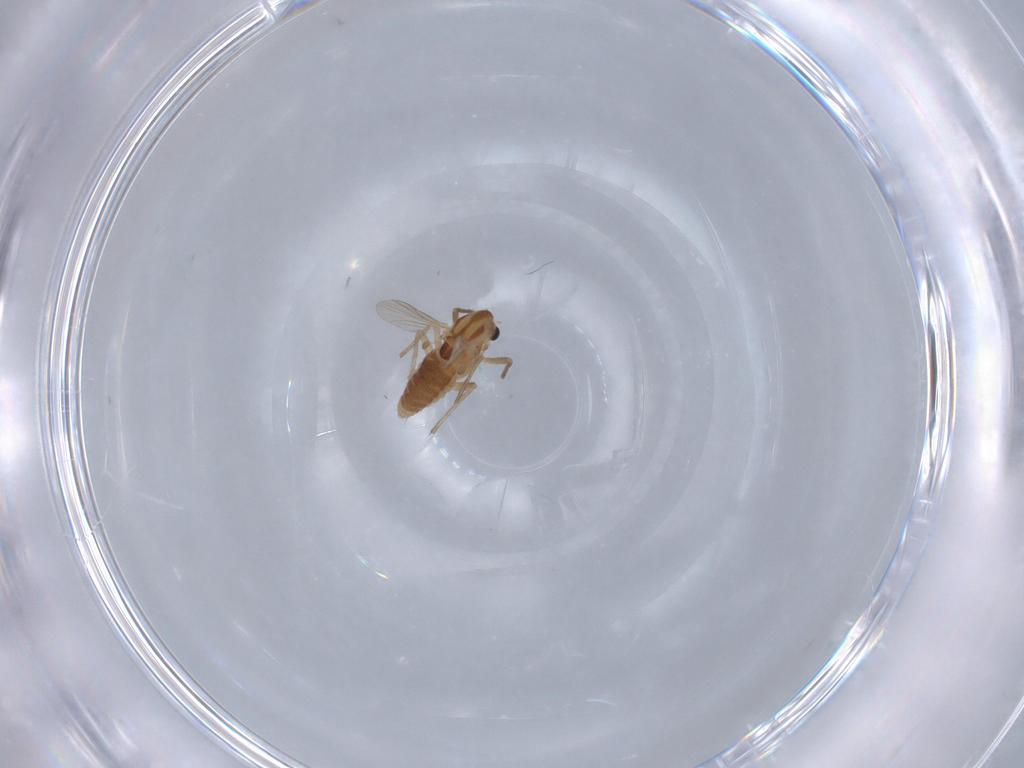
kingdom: Animalia
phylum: Arthropoda
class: Insecta
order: Diptera
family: Chironomidae
